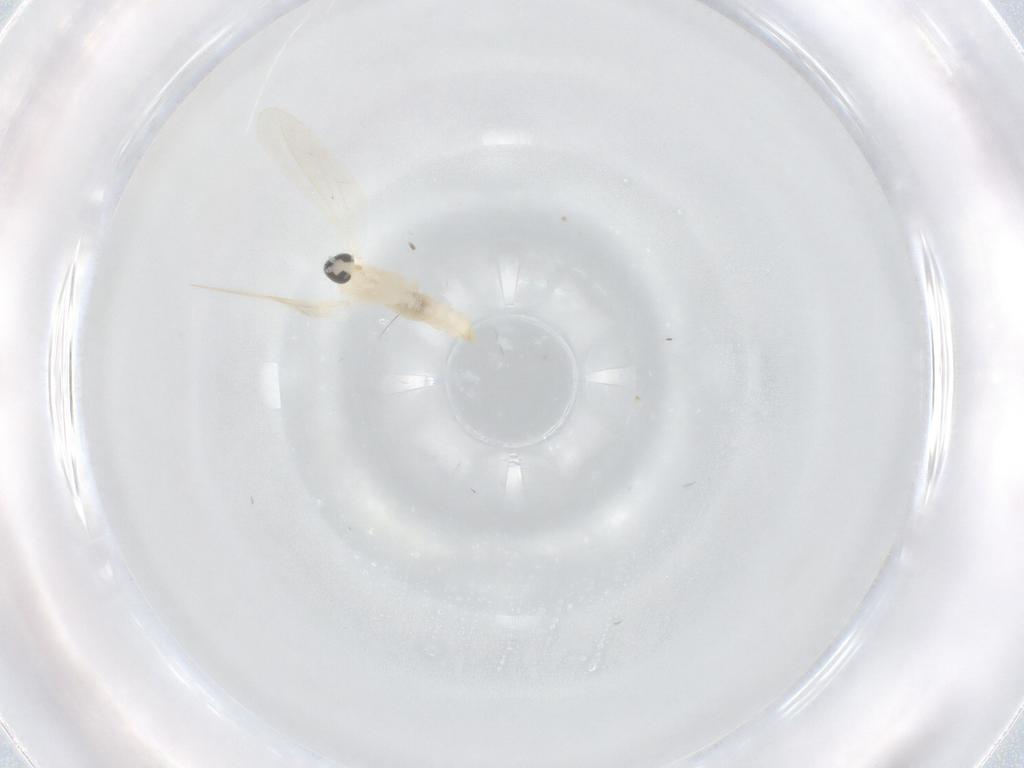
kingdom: Animalia
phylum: Arthropoda
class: Insecta
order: Diptera
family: Cecidomyiidae
